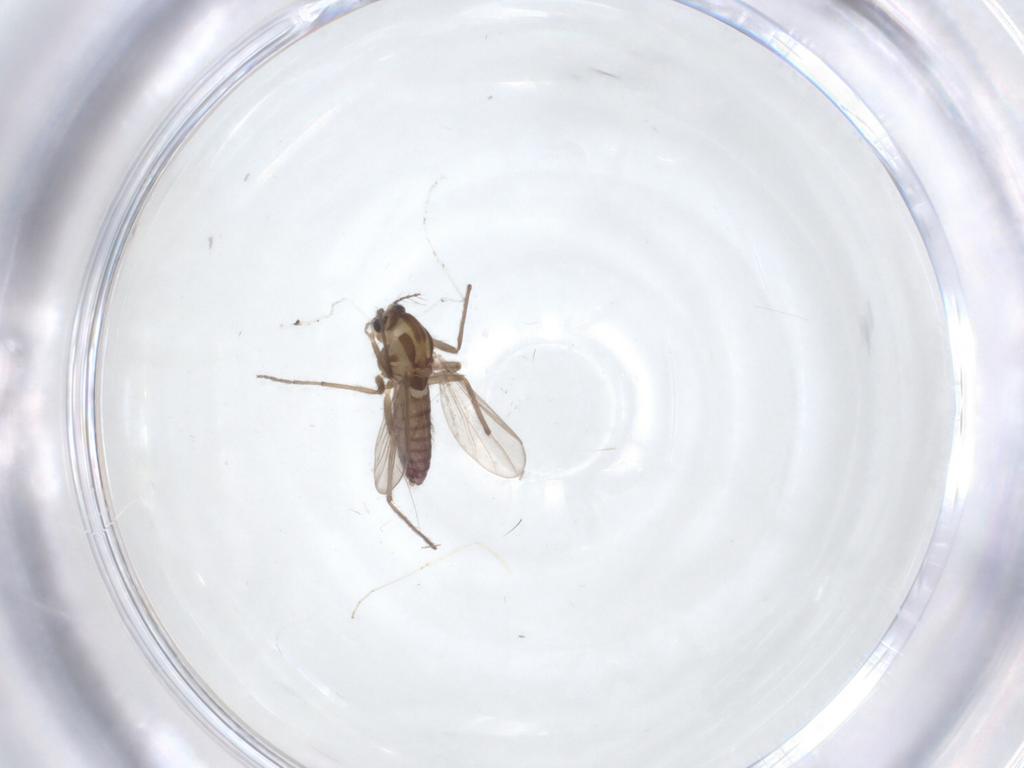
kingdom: Animalia
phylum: Arthropoda
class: Insecta
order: Diptera
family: Chironomidae
